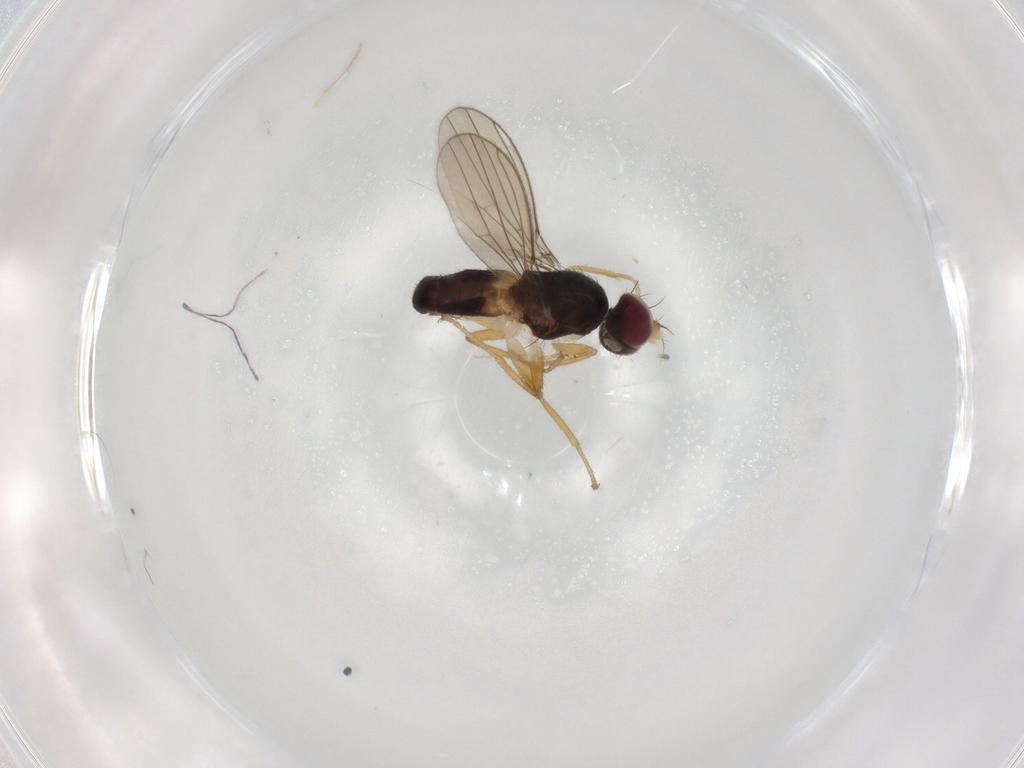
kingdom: Animalia
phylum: Arthropoda
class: Insecta
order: Diptera
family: Anthomyzidae
